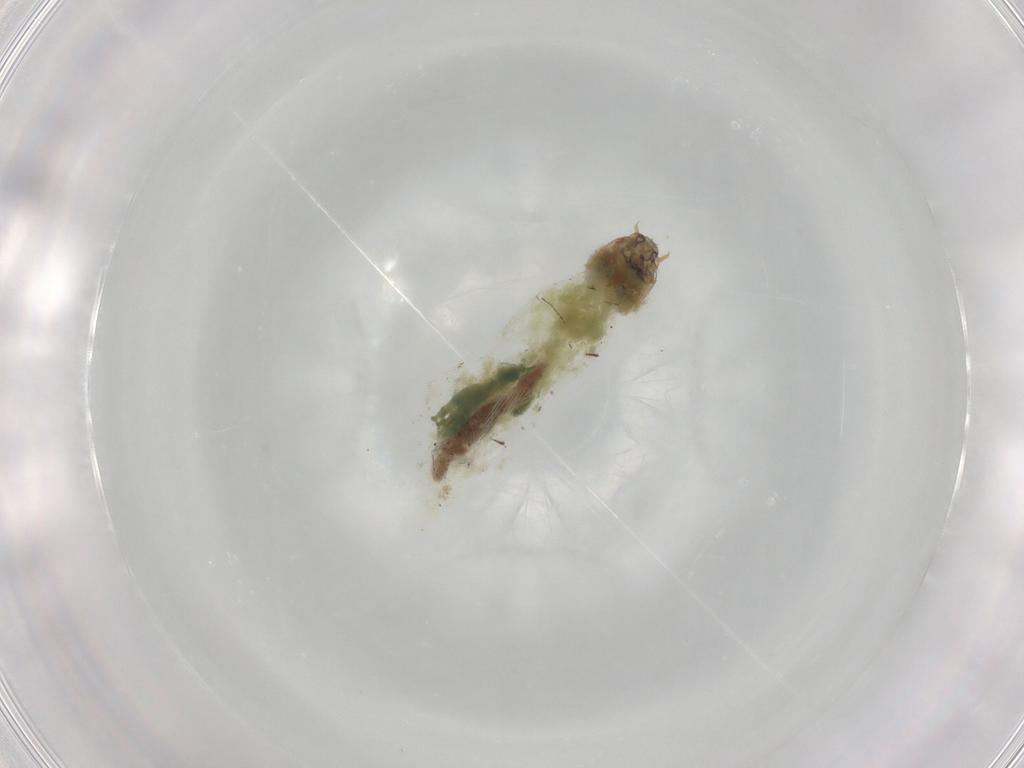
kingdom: Animalia
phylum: Arthropoda
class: Insecta
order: Diptera
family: Chironomidae
